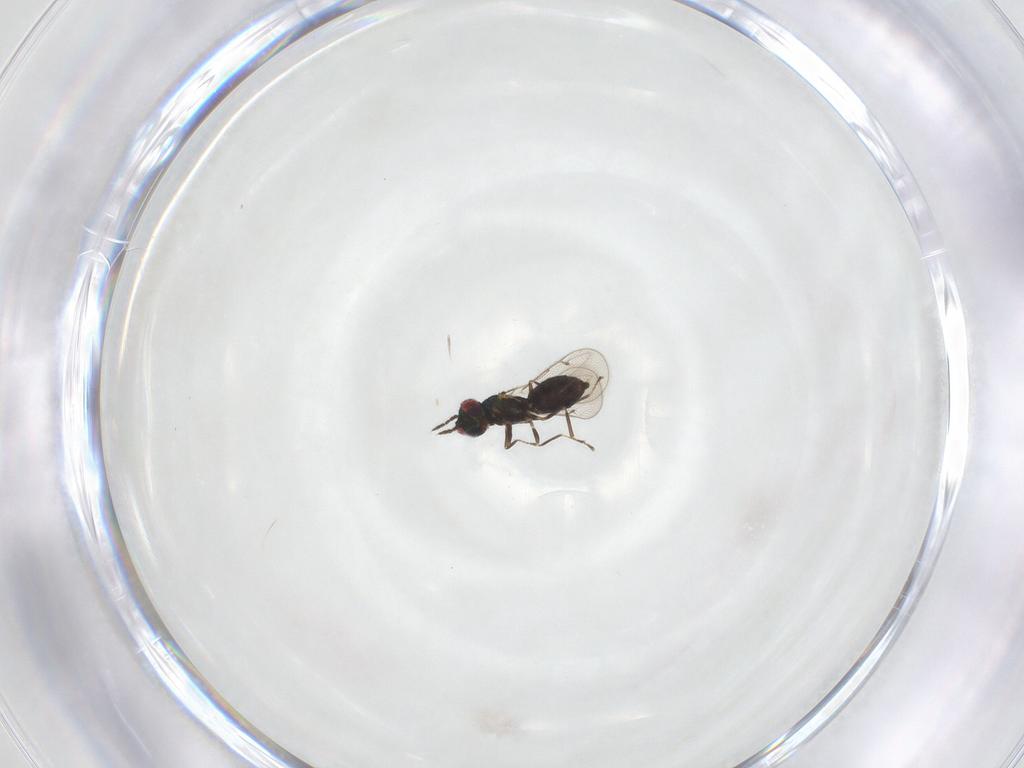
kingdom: Animalia
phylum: Arthropoda
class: Insecta
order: Hymenoptera
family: Eulophidae
